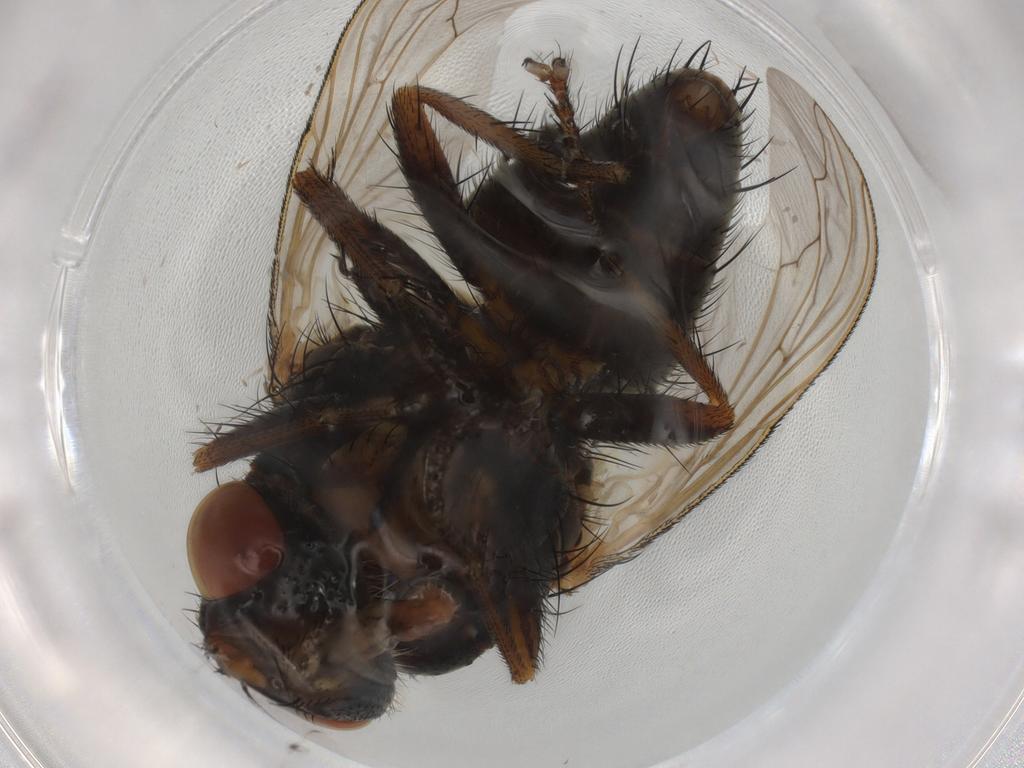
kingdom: Animalia
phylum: Arthropoda
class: Insecta
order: Diptera
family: Sarcophagidae
